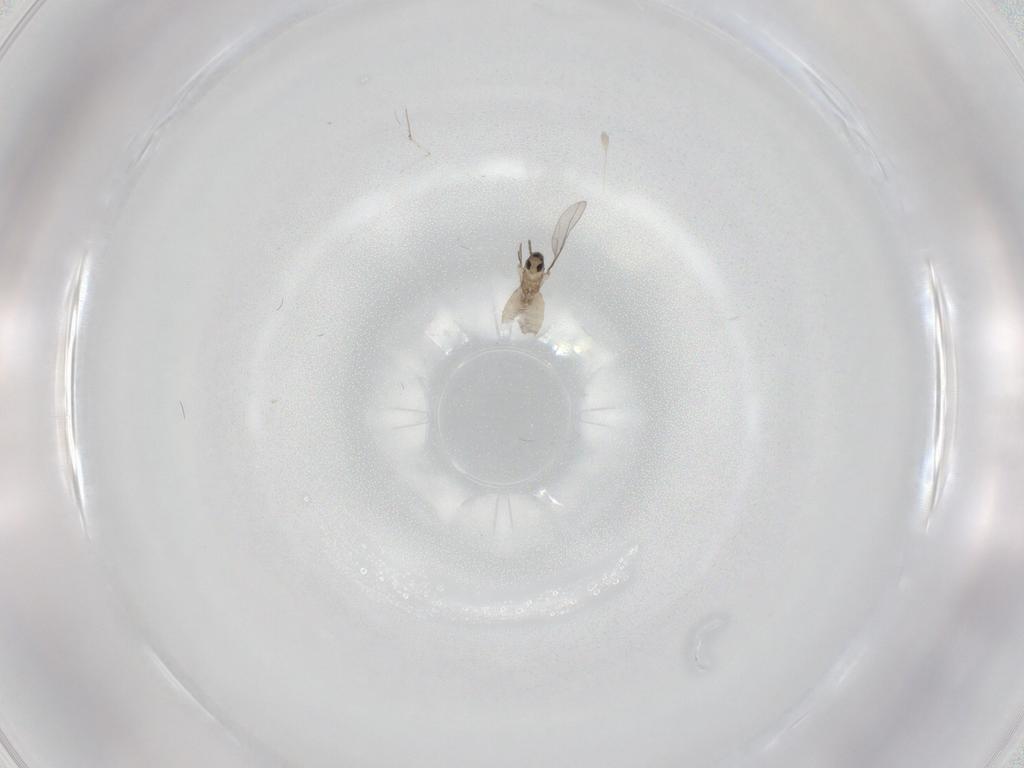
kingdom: Animalia
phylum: Arthropoda
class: Insecta
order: Diptera
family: Cecidomyiidae
